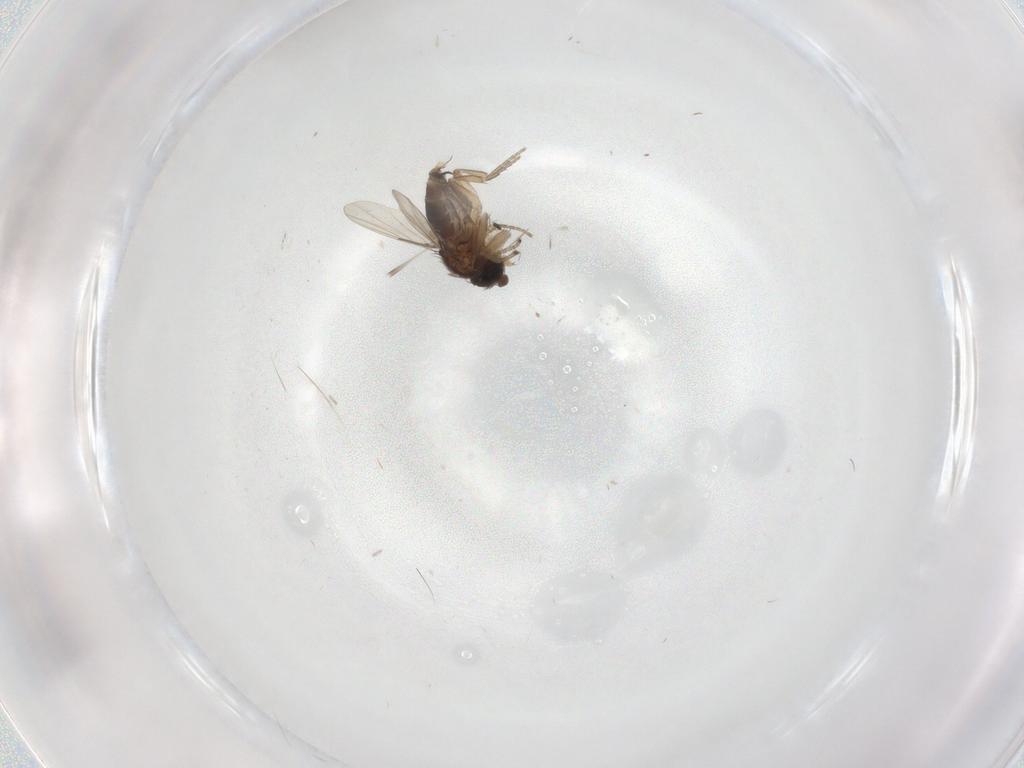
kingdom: Animalia
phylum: Arthropoda
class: Insecta
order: Diptera
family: Phoridae
